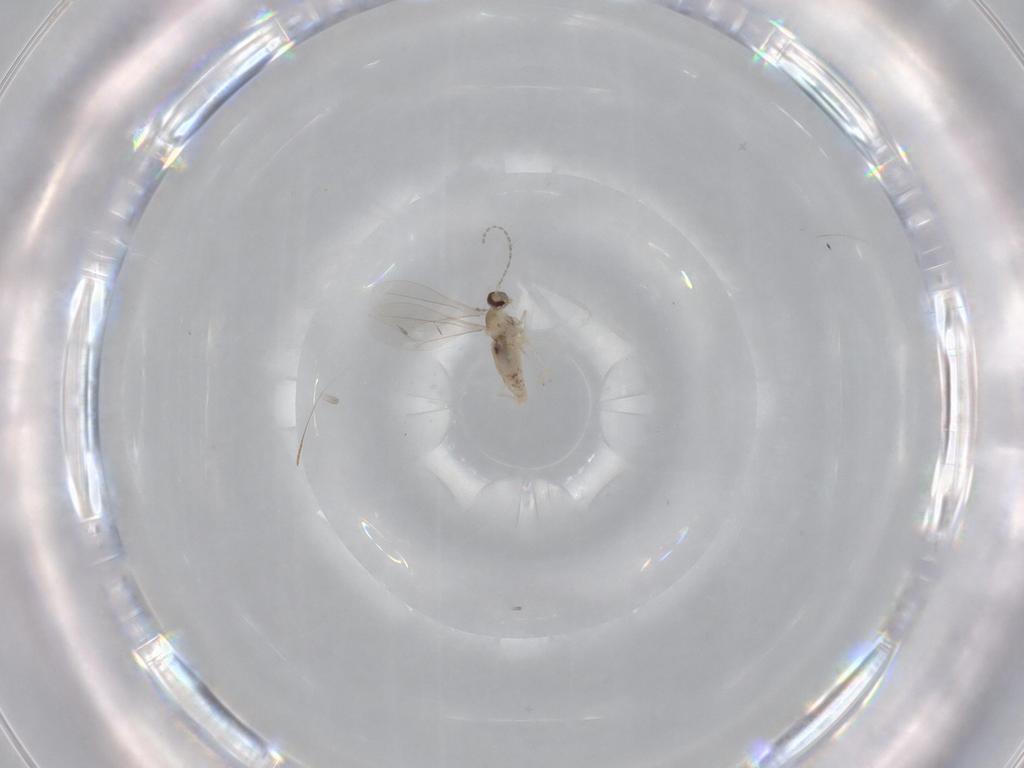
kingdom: Animalia
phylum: Arthropoda
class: Insecta
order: Diptera
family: Cecidomyiidae
